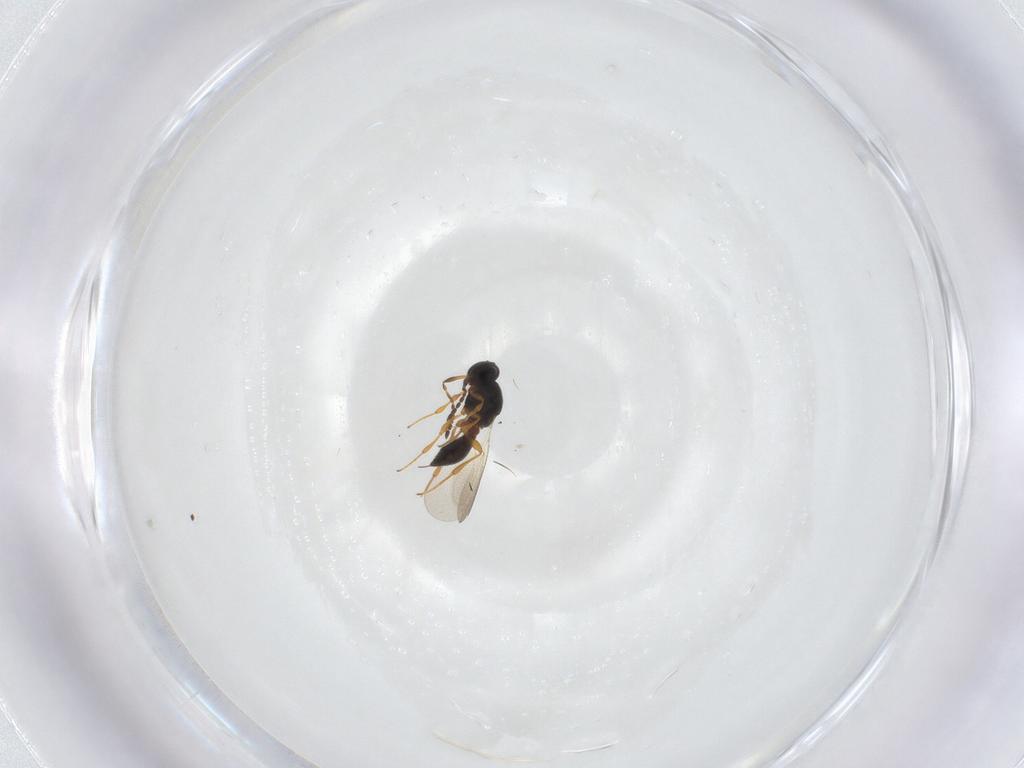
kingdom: Animalia
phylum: Arthropoda
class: Insecta
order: Hymenoptera
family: Platygastridae
